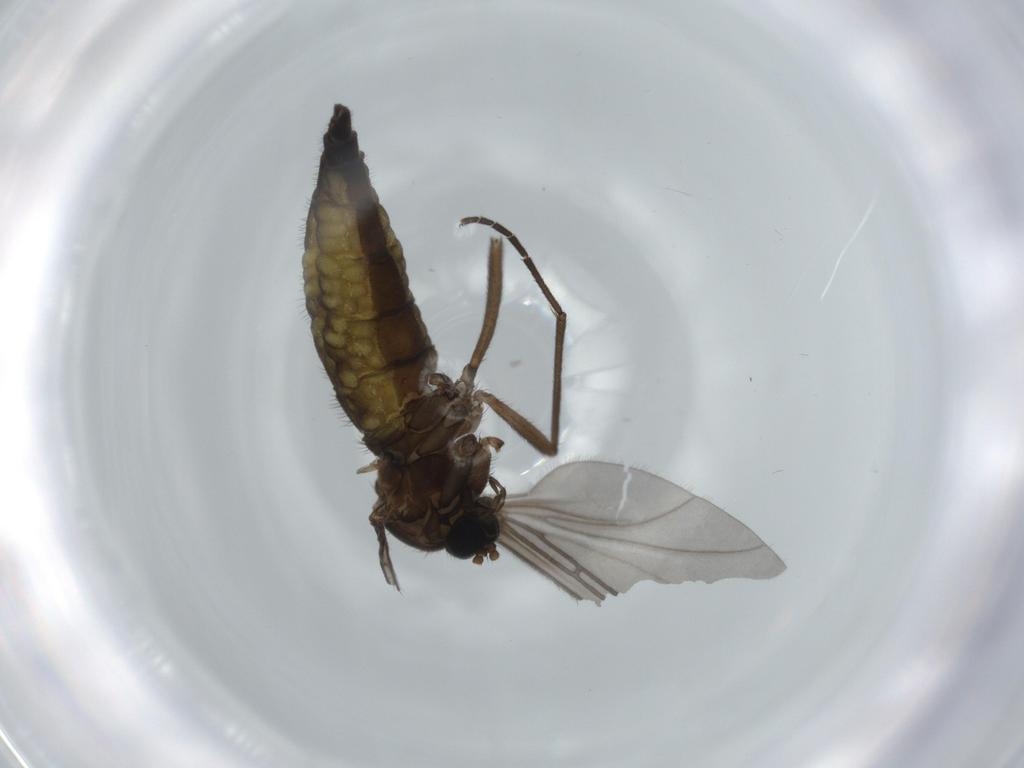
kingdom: Animalia
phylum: Arthropoda
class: Insecta
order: Diptera
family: Sciaridae
